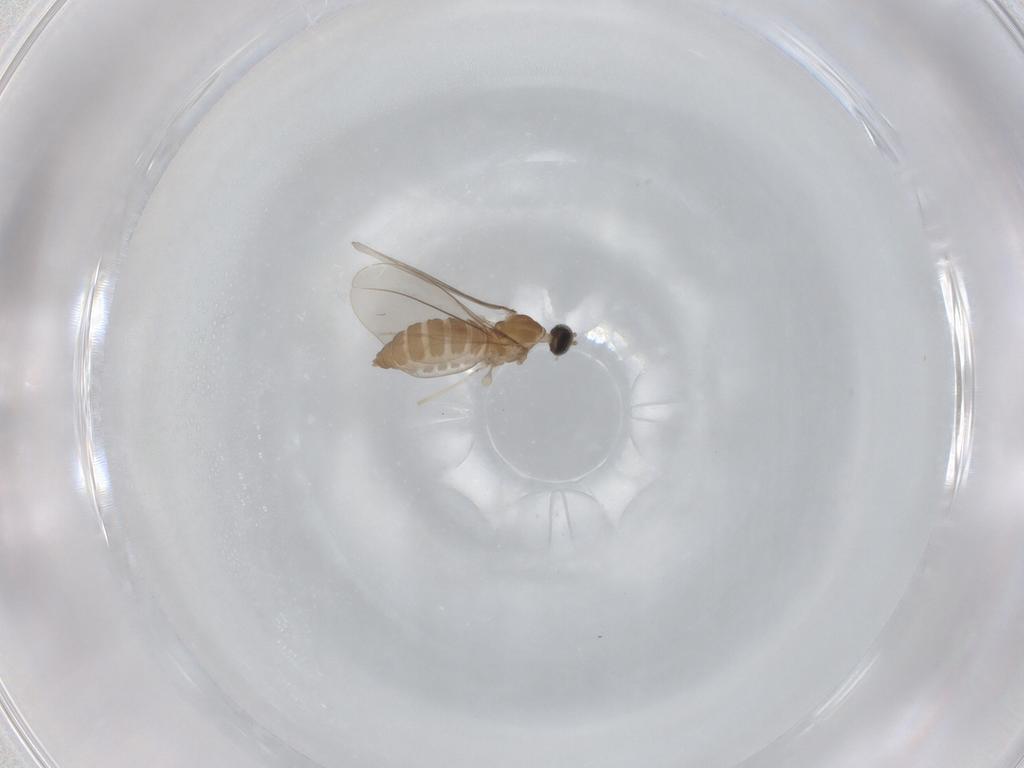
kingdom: Animalia
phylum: Arthropoda
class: Insecta
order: Diptera
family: Cecidomyiidae
